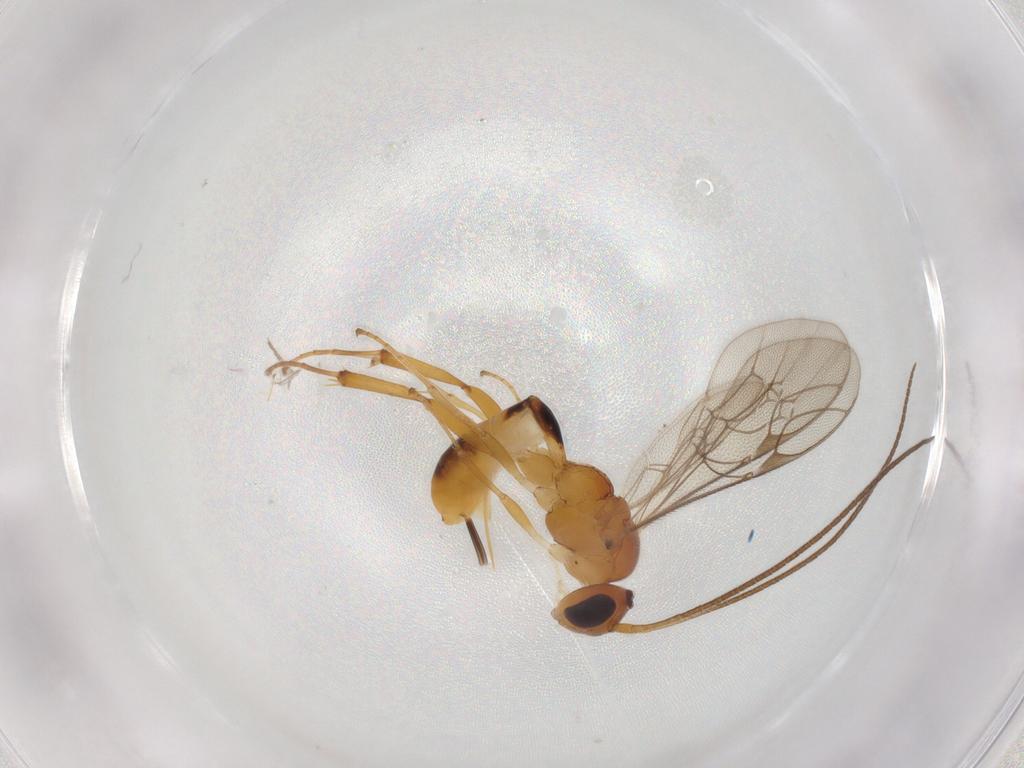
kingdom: Animalia
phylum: Arthropoda
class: Insecta
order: Hymenoptera
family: Ichneumonidae
